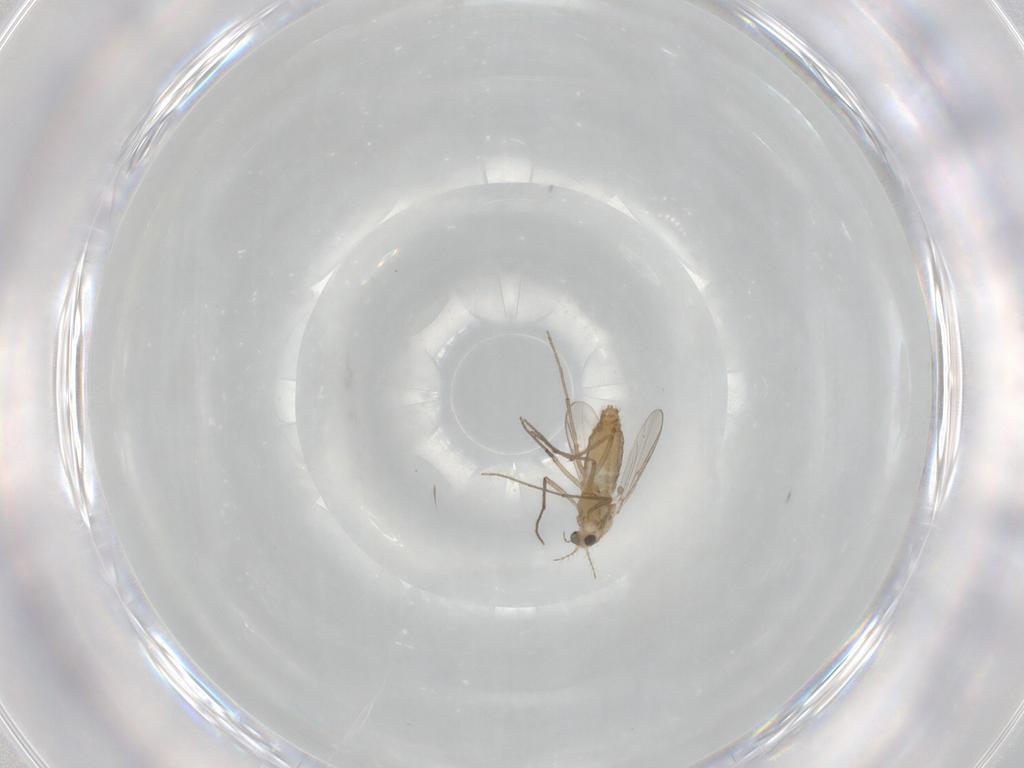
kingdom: Animalia
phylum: Arthropoda
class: Insecta
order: Diptera
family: Chironomidae
